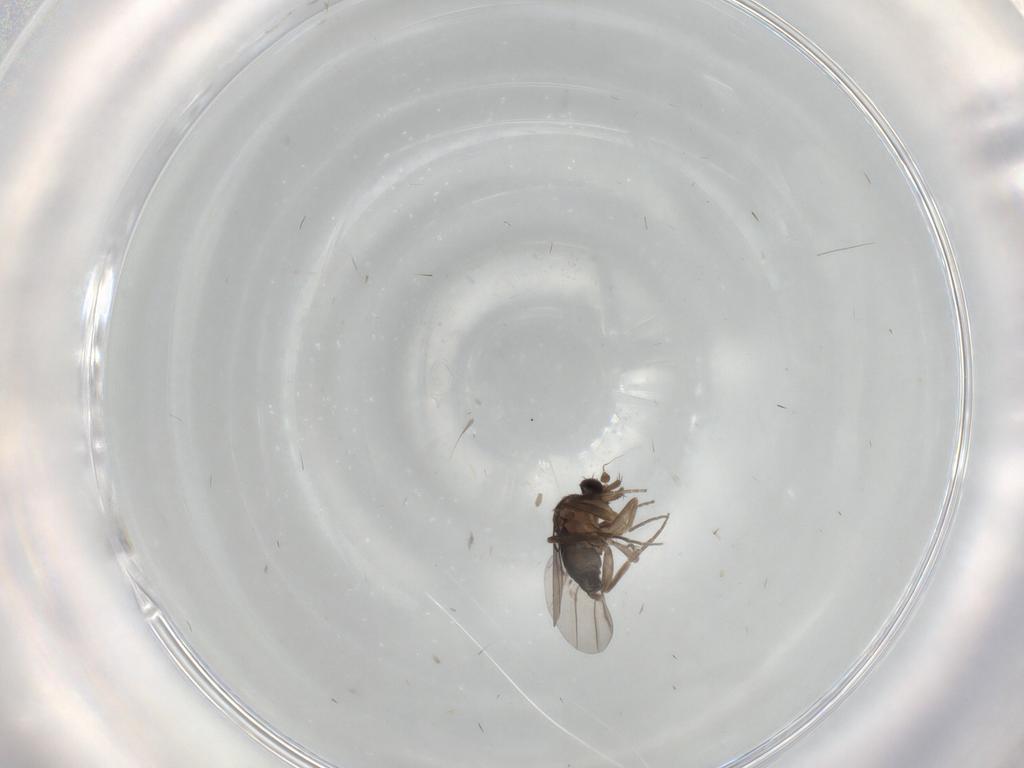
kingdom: Animalia
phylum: Arthropoda
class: Insecta
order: Diptera
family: Phoridae
